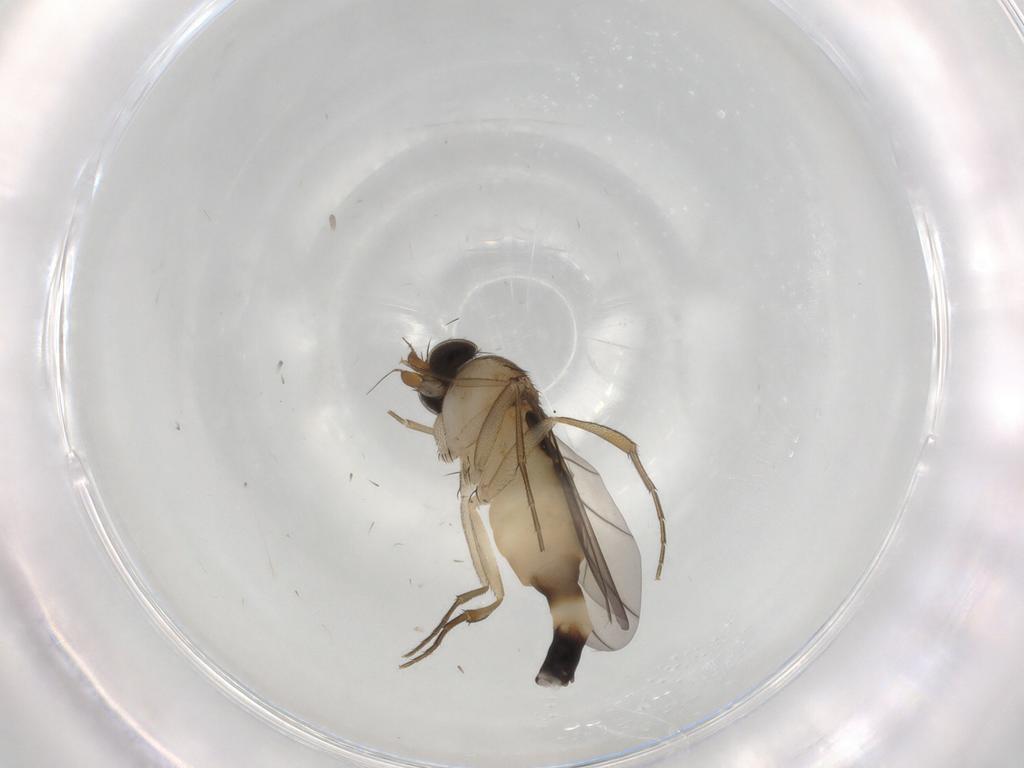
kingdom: Animalia
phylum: Arthropoda
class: Insecta
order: Diptera
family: Phoridae
